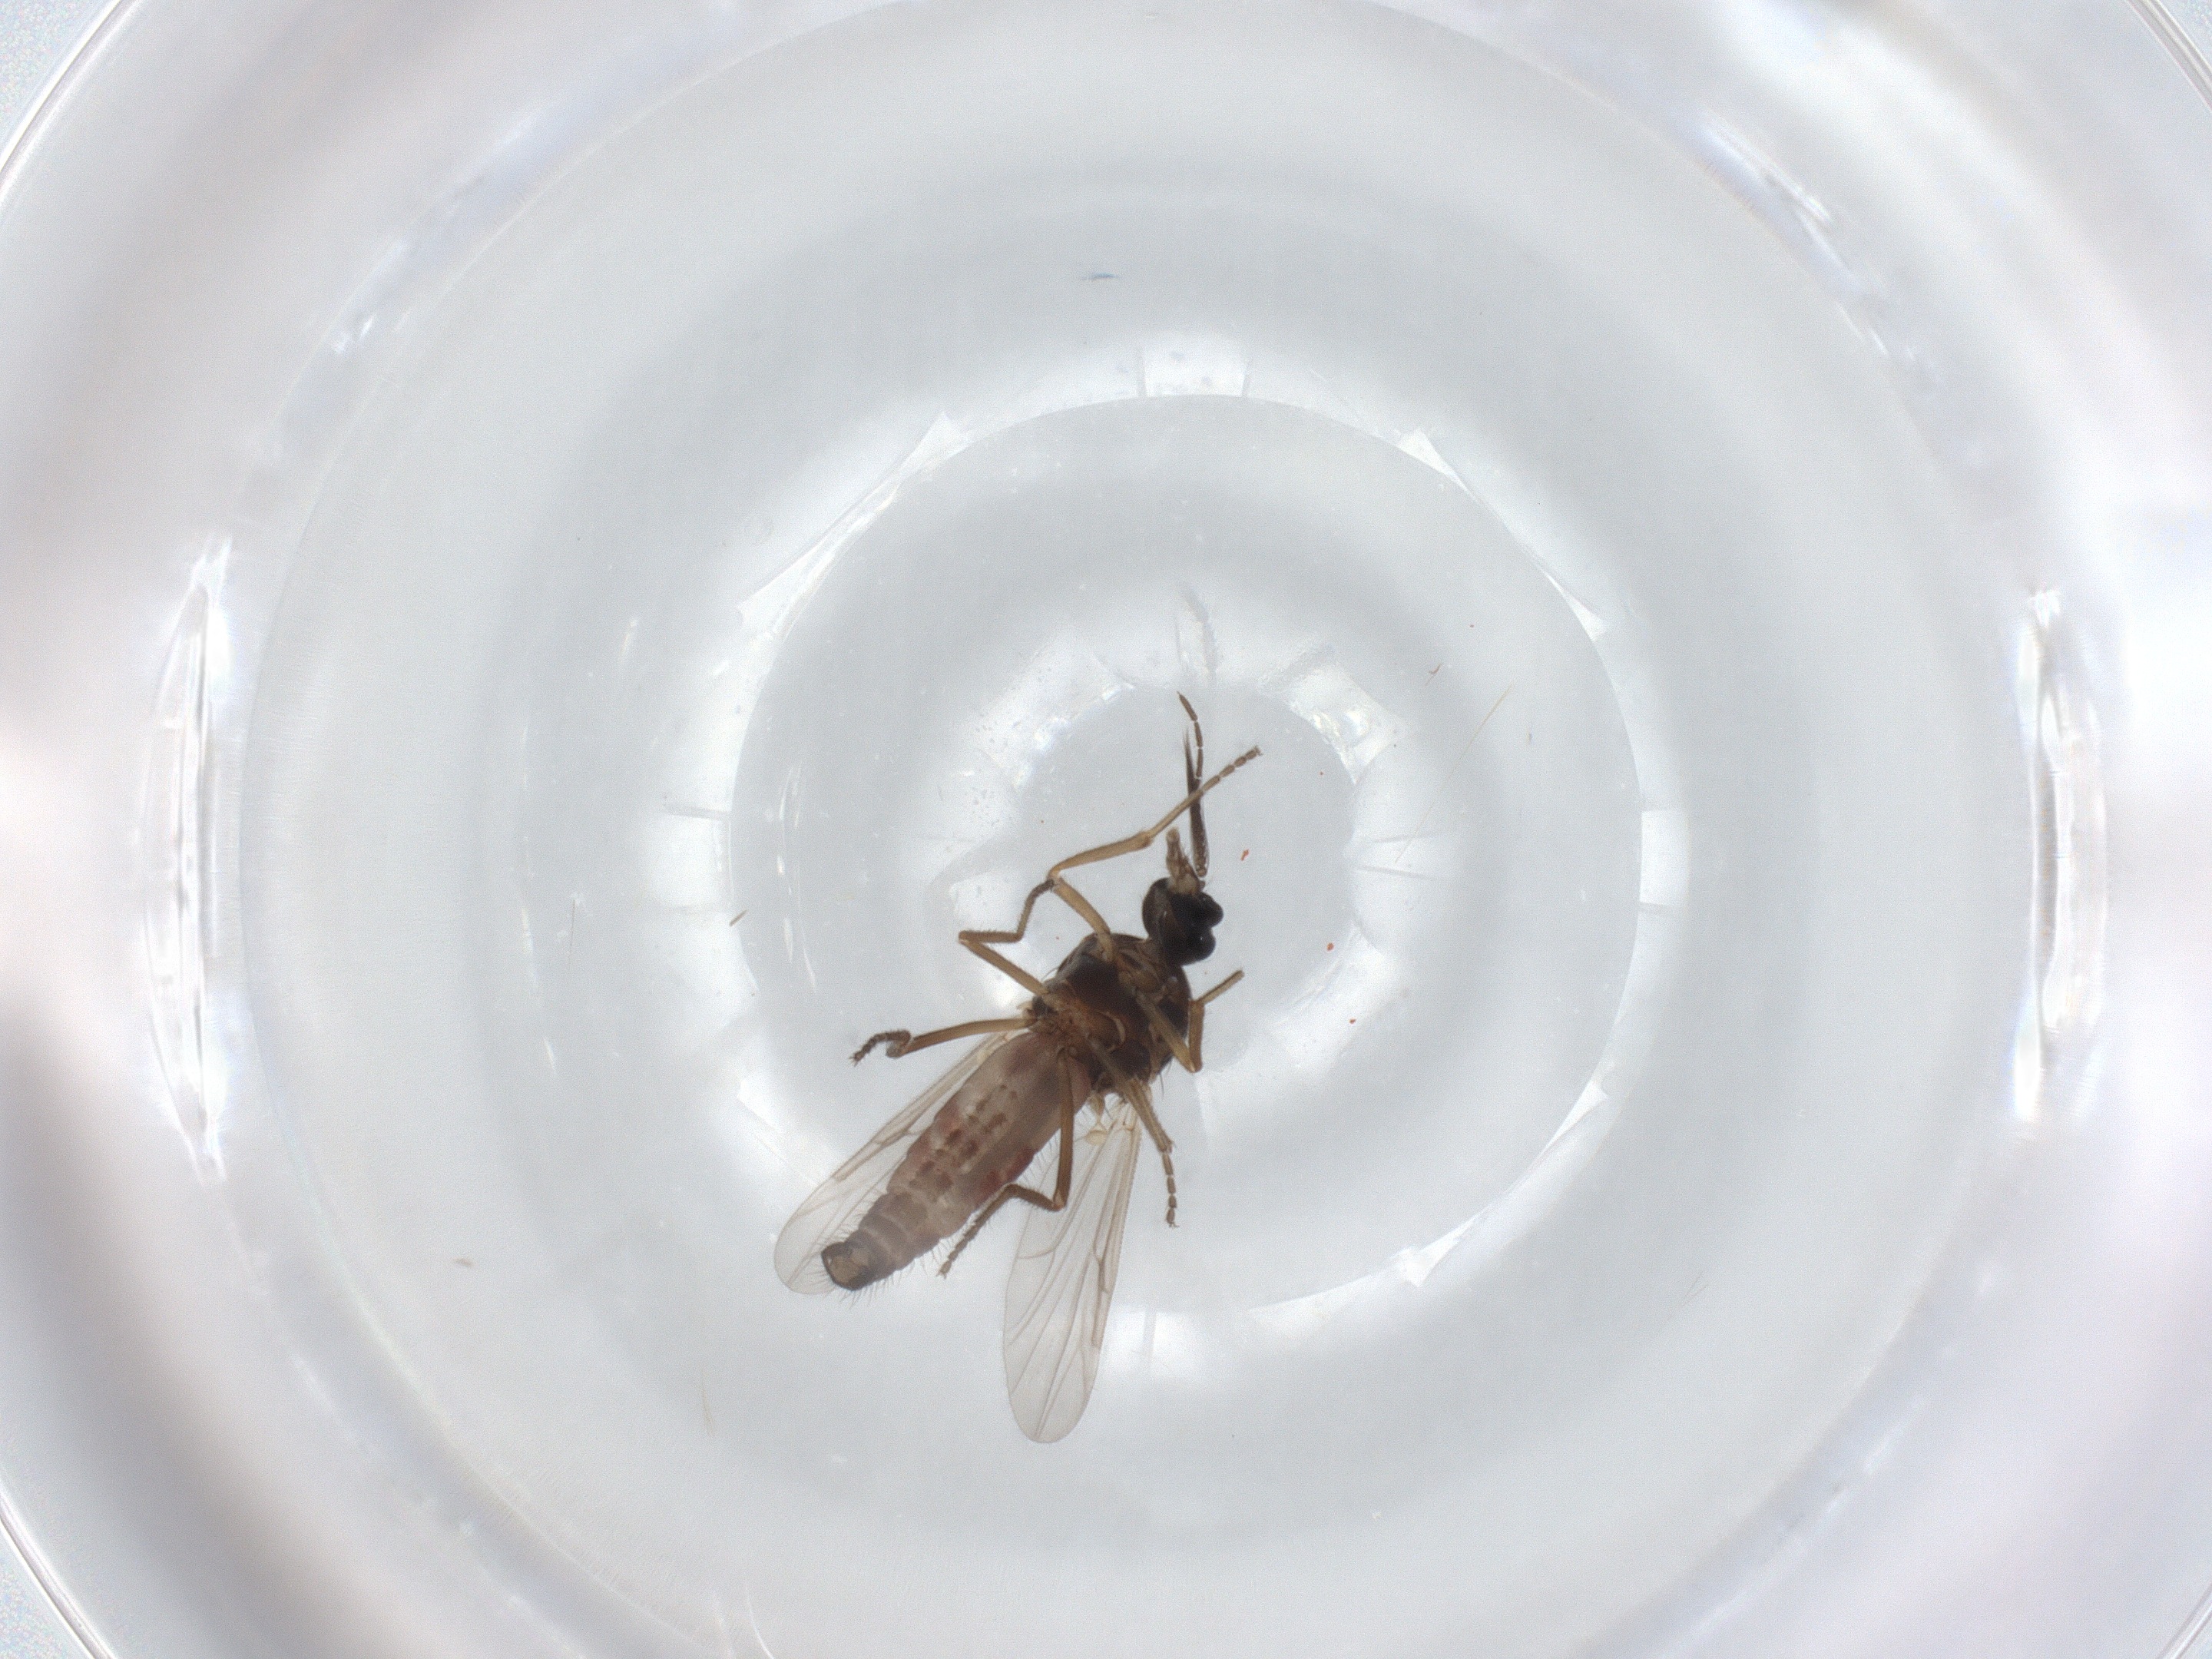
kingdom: Animalia
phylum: Arthropoda
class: Insecta
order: Diptera
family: Ceratopogonidae
